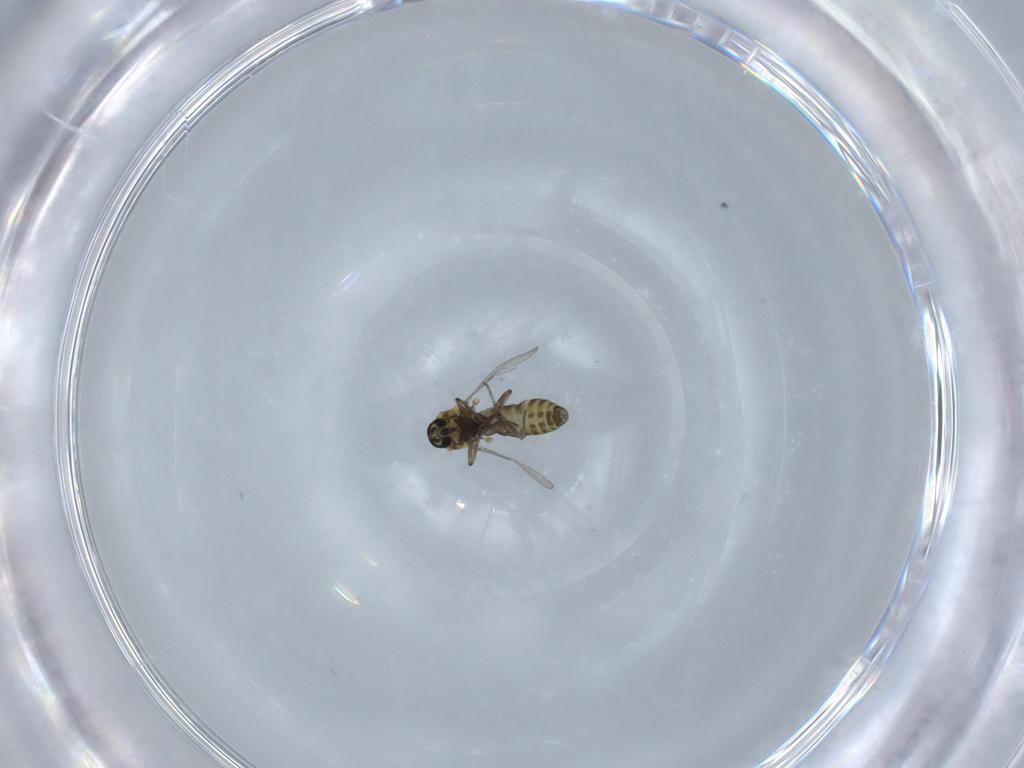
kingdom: Animalia
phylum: Arthropoda
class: Insecta
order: Diptera
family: Ceratopogonidae
